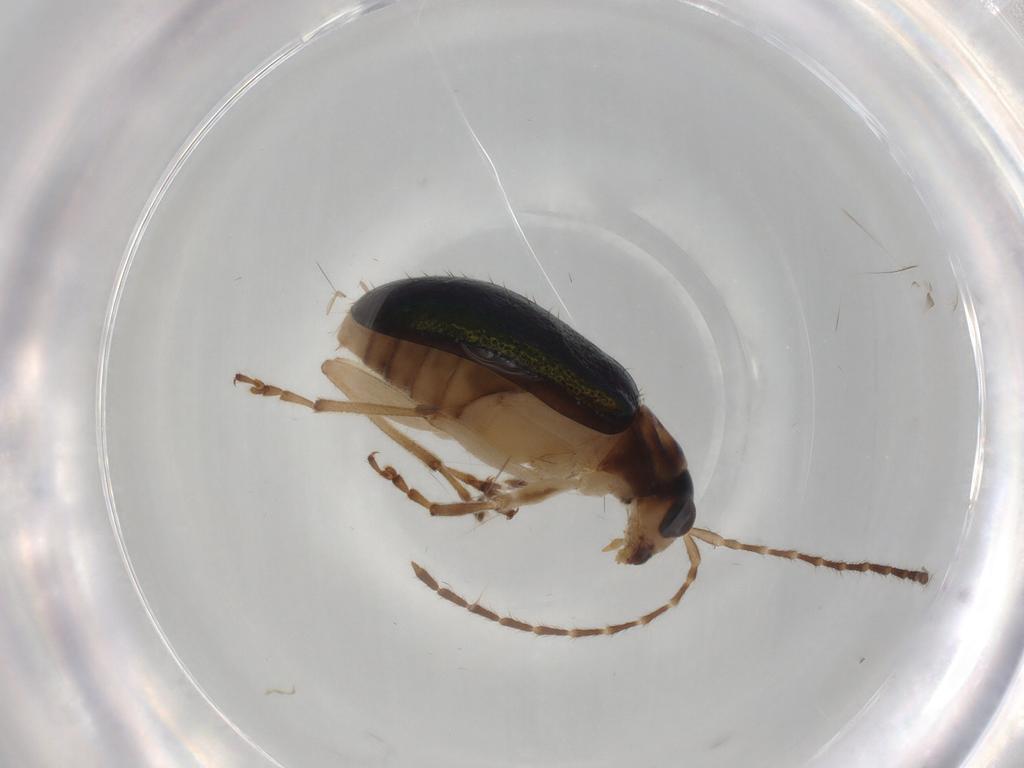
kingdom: Animalia
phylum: Arthropoda
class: Insecta
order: Coleoptera
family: Chrysomelidae
